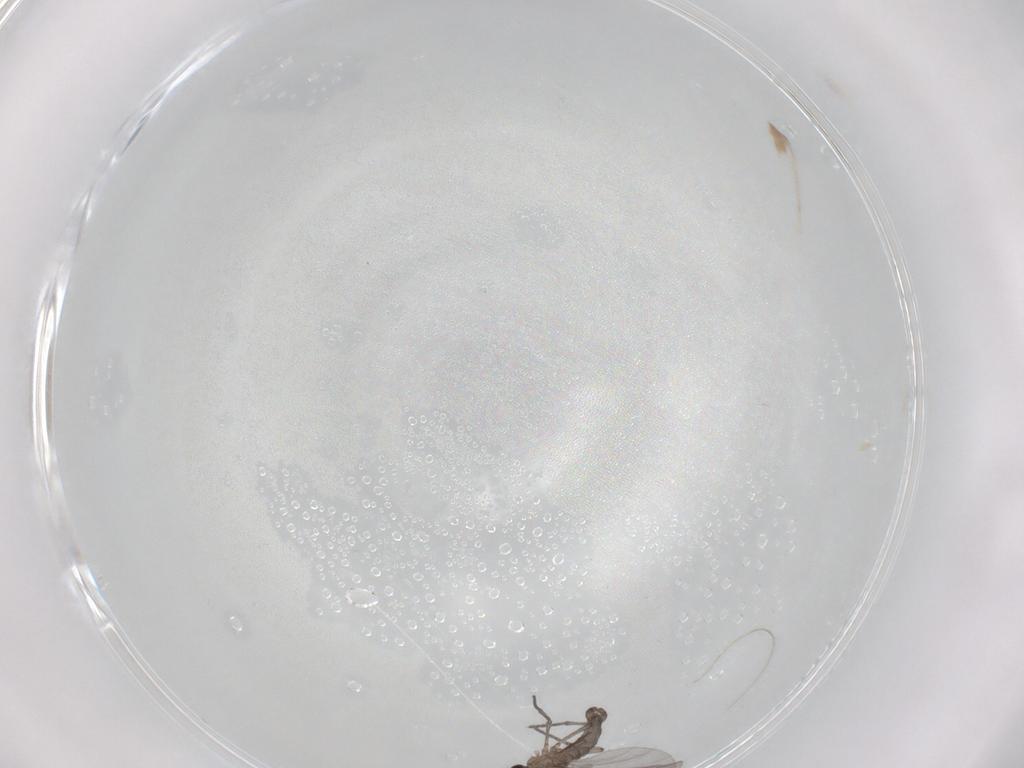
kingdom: Animalia
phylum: Arthropoda
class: Insecta
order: Diptera
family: Sciaridae
